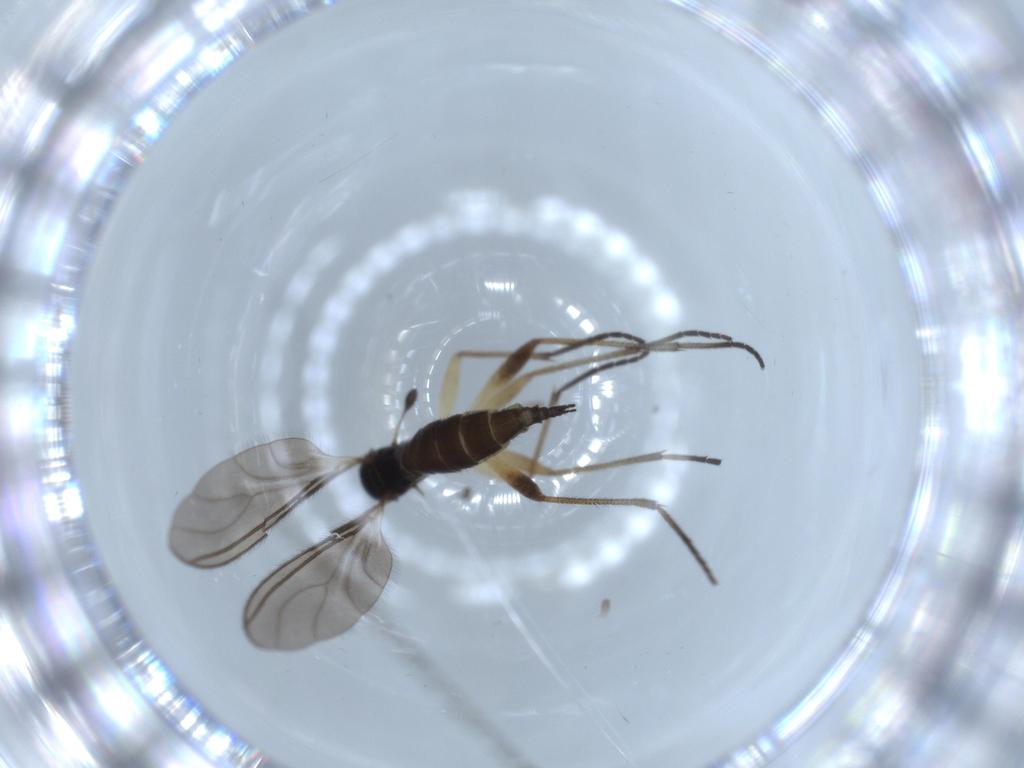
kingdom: Animalia
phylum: Arthropoda
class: Insecta
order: Diptera
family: Sciaridae
